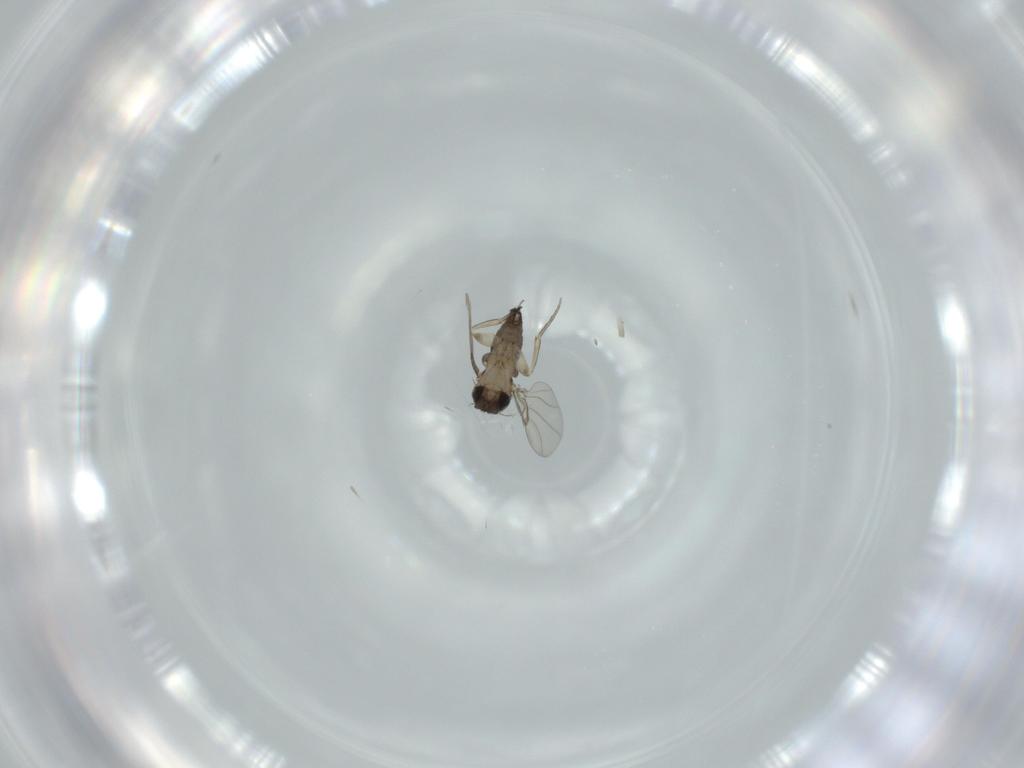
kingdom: Animalia
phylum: Arthropoda
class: Insecta
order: Diptera
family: Phoridae
